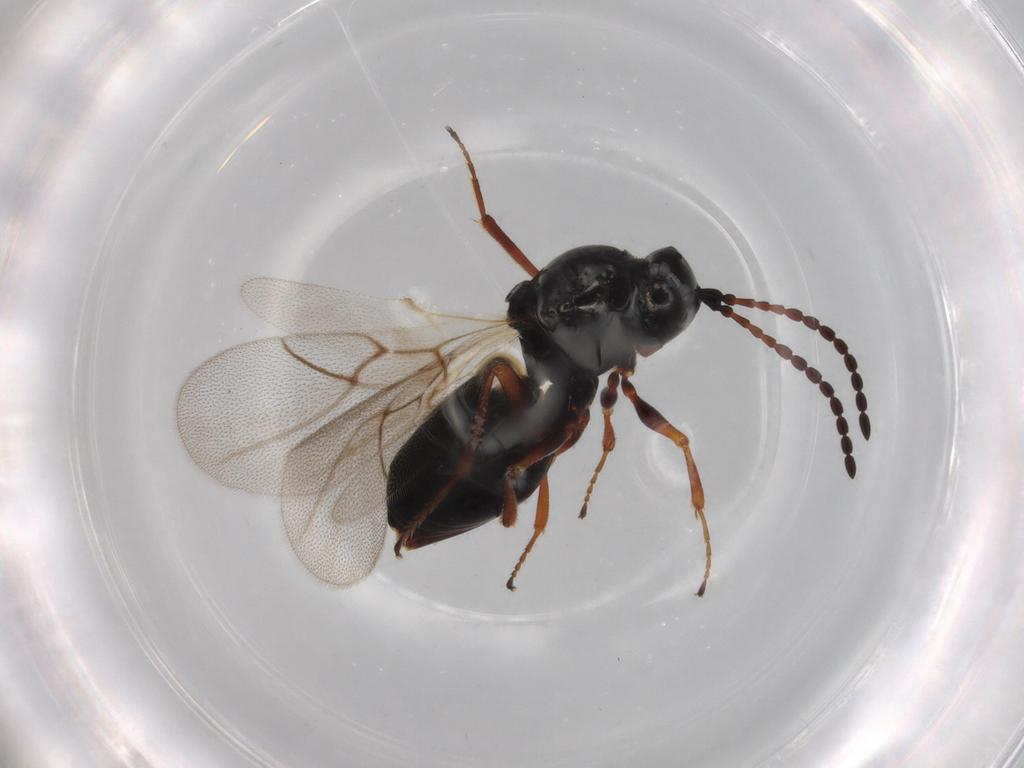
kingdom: Animalia
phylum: Arthropoda
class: Insecta
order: Hymenoptera
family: Figitidae
